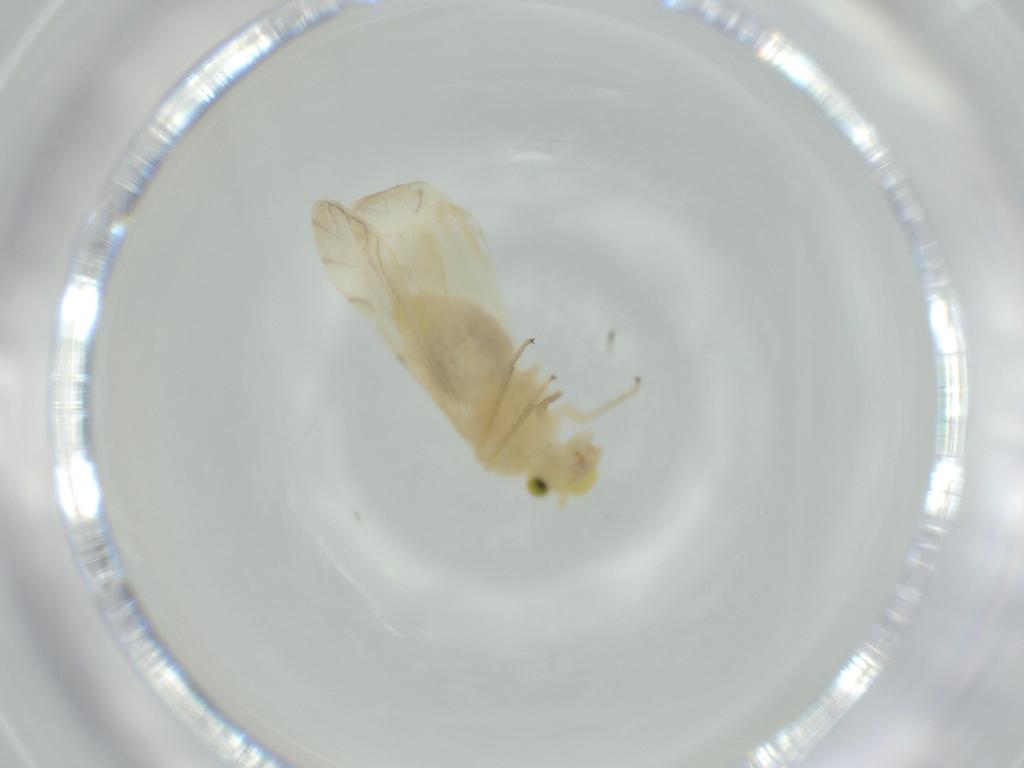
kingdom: Animalia
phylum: Arthropoda
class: Insecta
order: Psocodea
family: Caeciliusidae
